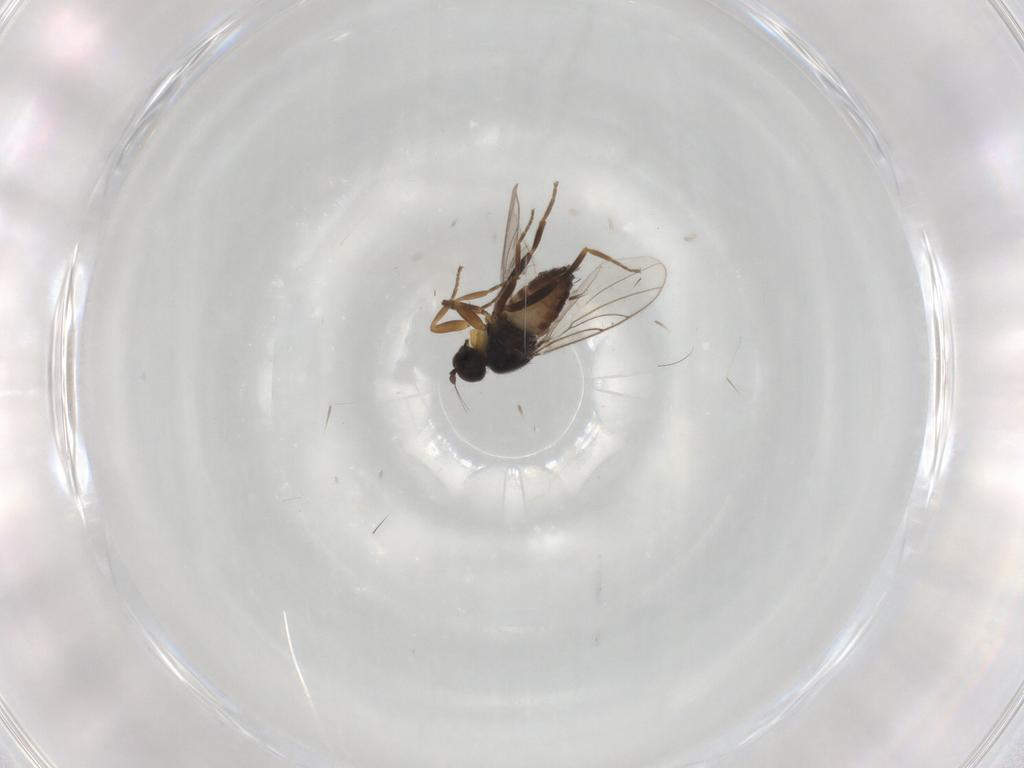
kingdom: Animalia
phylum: Arthropoda
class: Insecta
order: Diptera
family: Hybotidae
